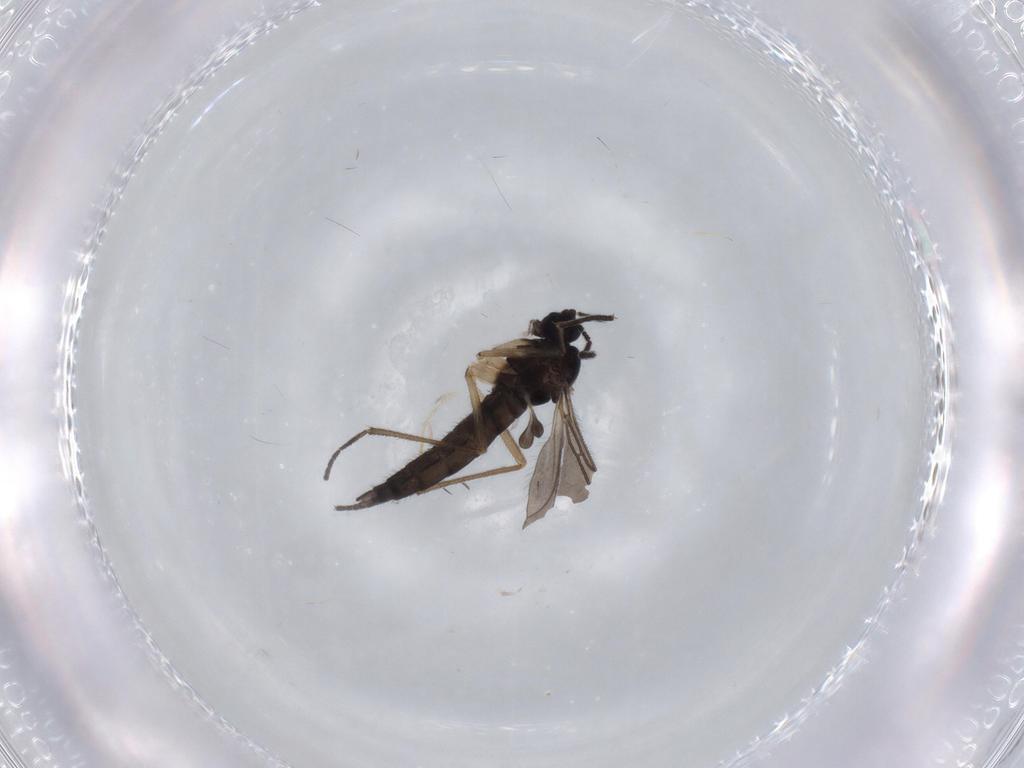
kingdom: Animalia
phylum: Arthropoda
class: Insecta
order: Diptera
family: Sciaridae
